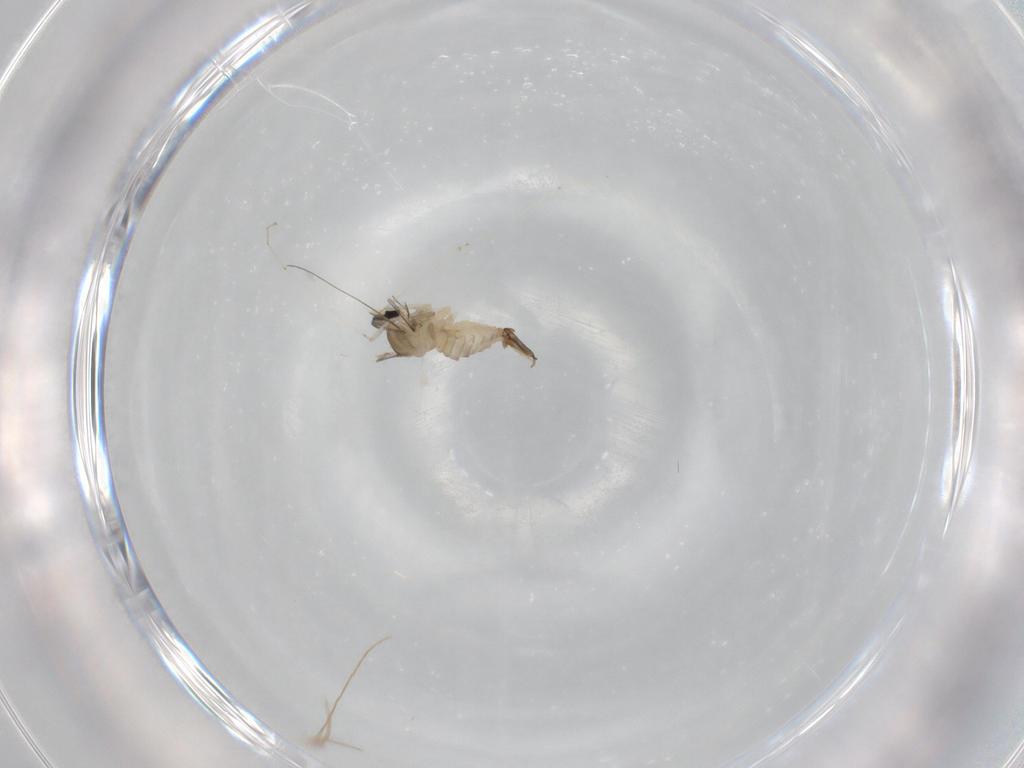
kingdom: Animalia
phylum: Arthropoda
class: Insecta
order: Diptera
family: Cecidomyiidae
